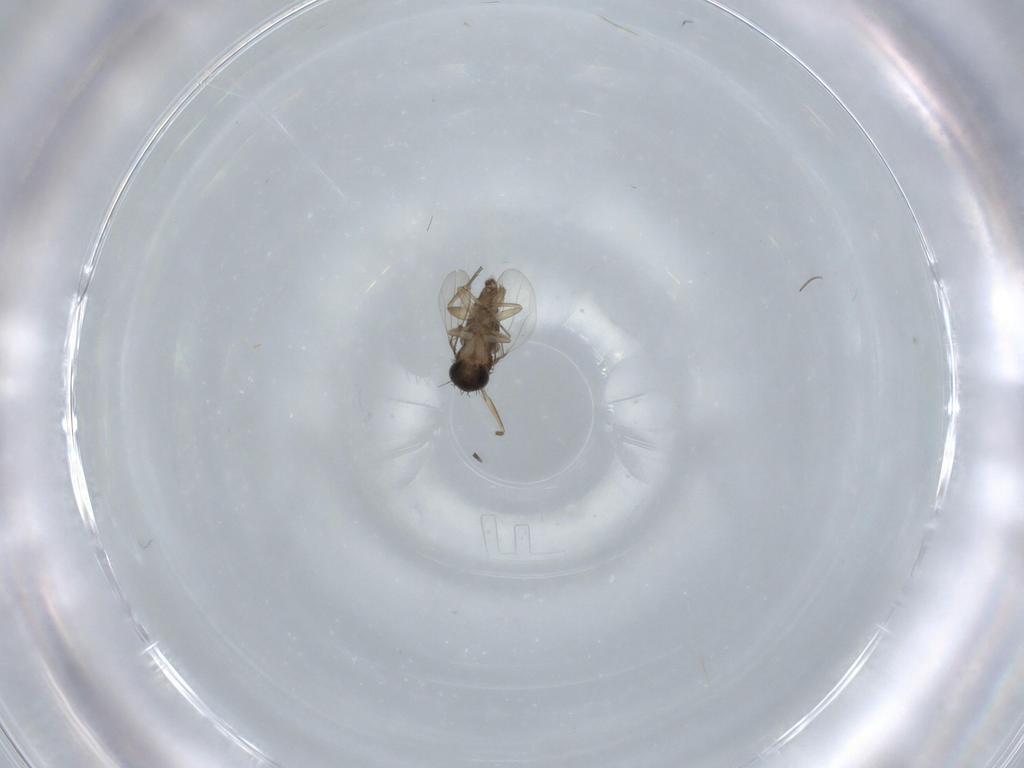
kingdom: Animalia
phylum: Arthropoda
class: Insecta
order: Diptera
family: Phoridae
